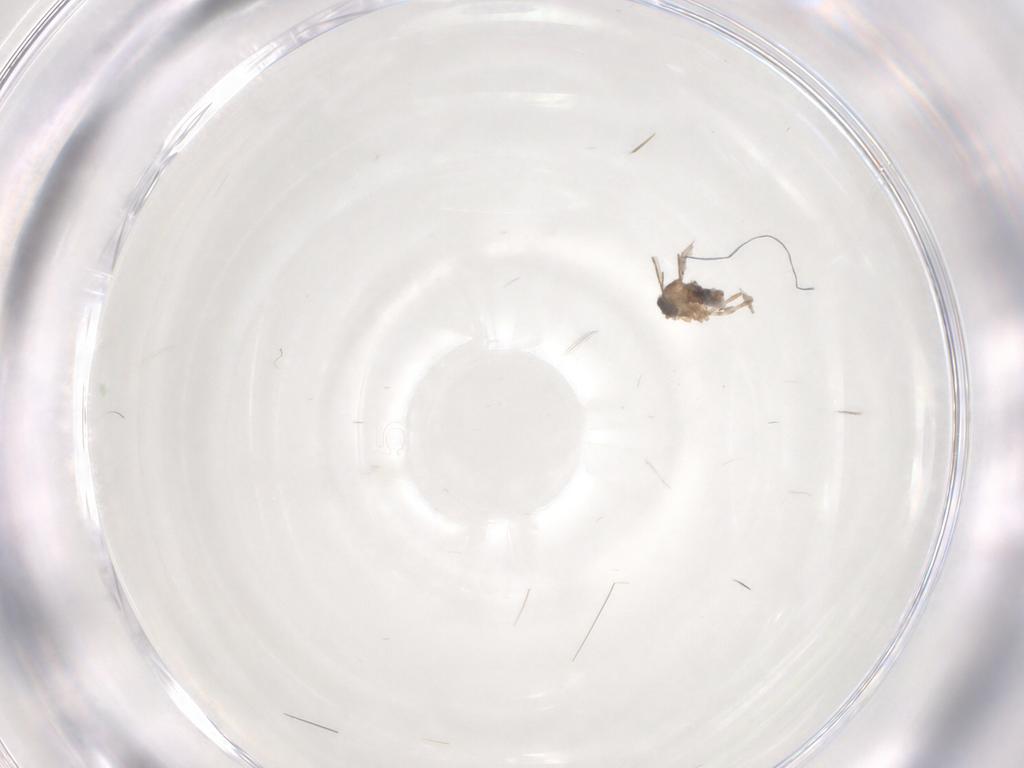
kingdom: Animalia
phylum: Arthropoda
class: Insecta
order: Diptera
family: Cecidomyiidae
